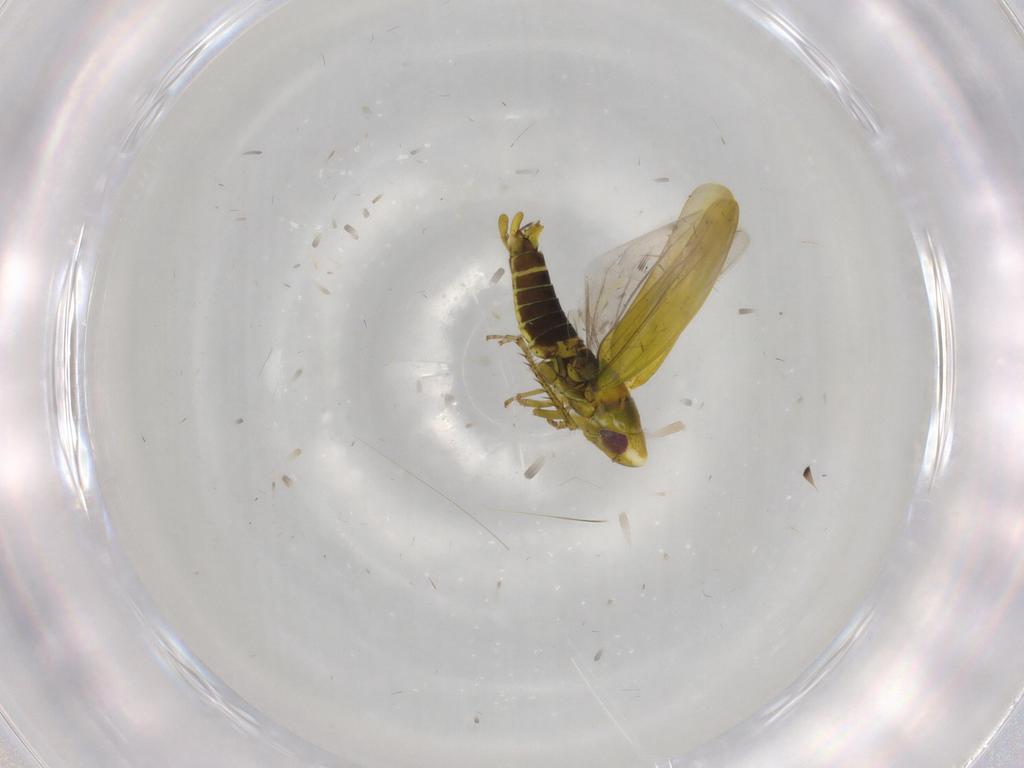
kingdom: Animalia
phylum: Arthropoda
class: Insecta
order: Hemiptera
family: Cicadellidae
